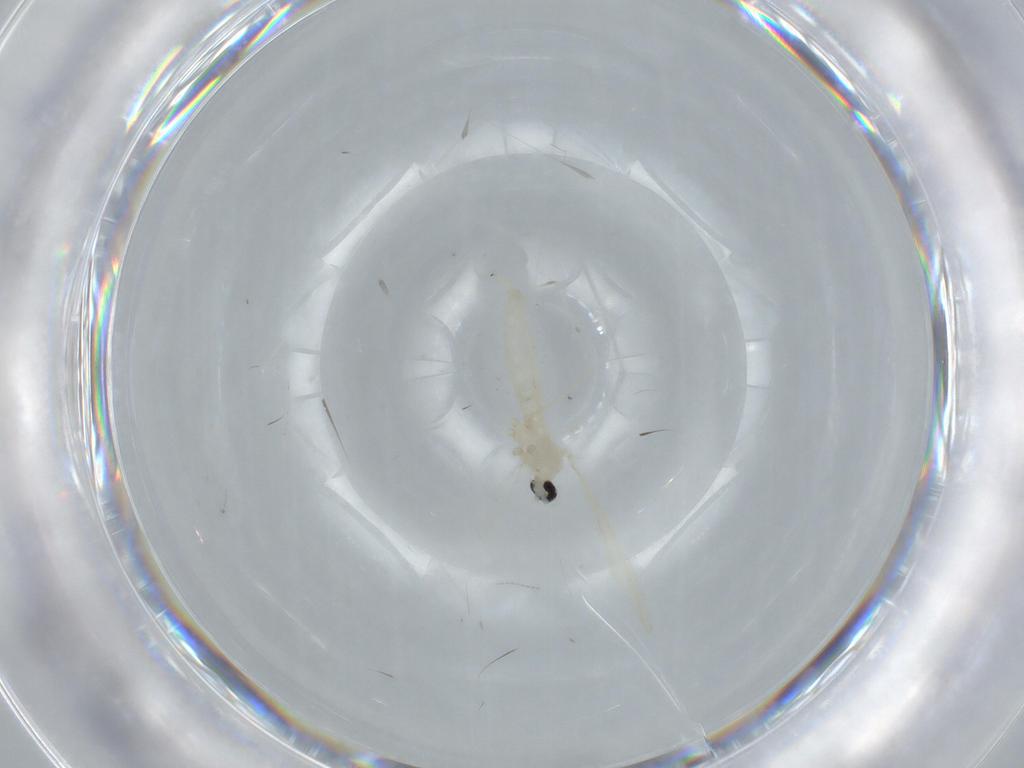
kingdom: Animalia
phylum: Arthropoda
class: Insecta
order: Diptera
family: Cecidomyiidae
